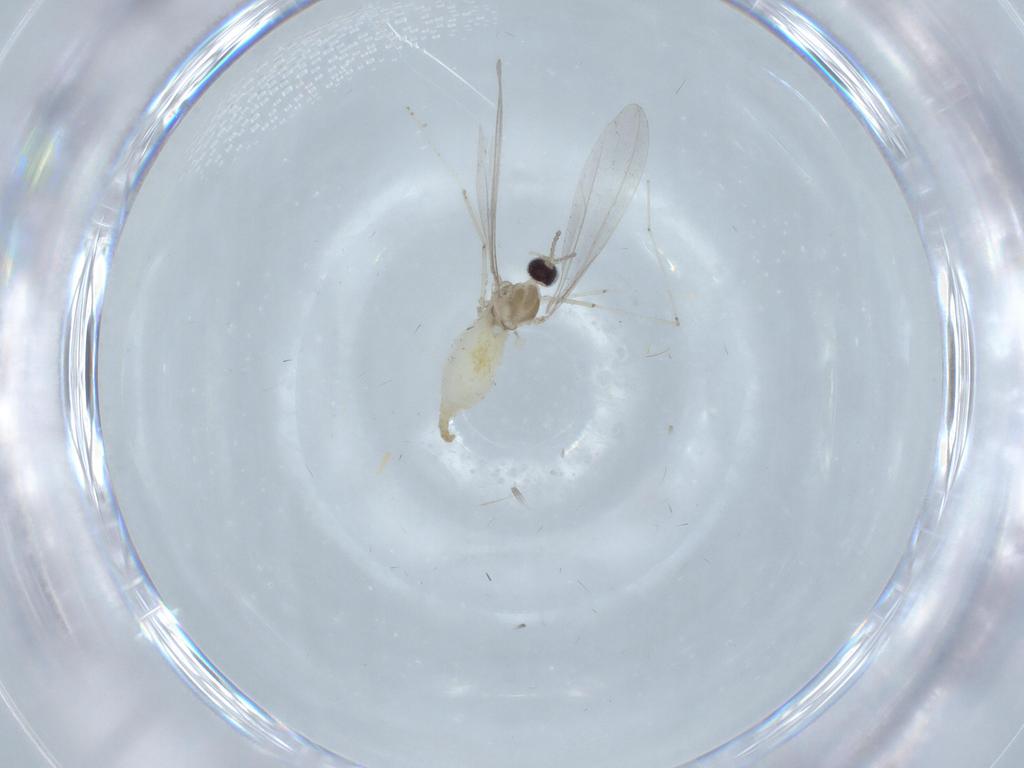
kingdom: Animalia
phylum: Arthropoda
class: Insecta
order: Diptera
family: Cecidomyiidae
